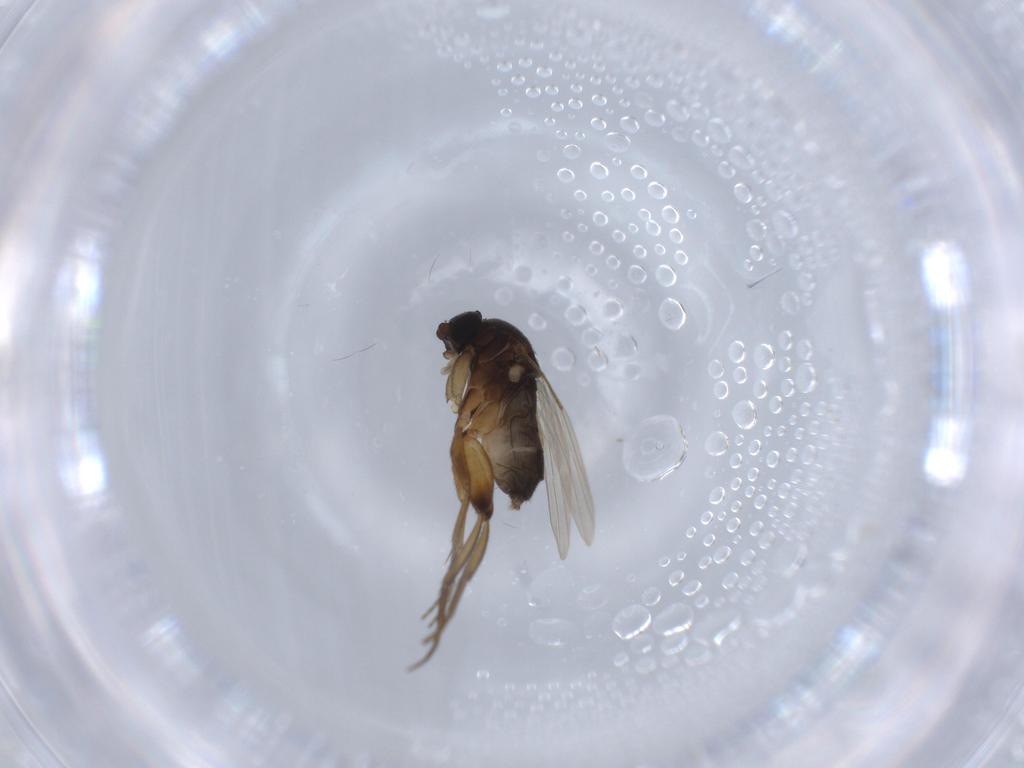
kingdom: Animalia
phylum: Arthropoda
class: Insecta
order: Diptera
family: Phoridae
